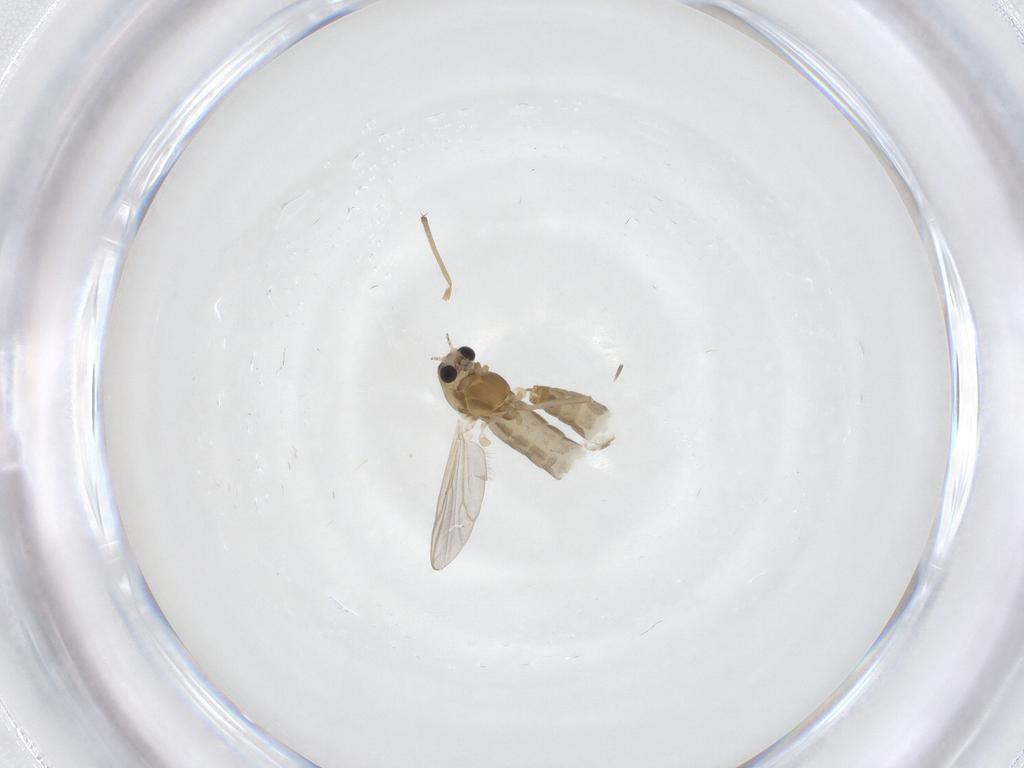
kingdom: Animalia
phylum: Arthropoda
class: Insecta
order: Diptera
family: Chironomidae
